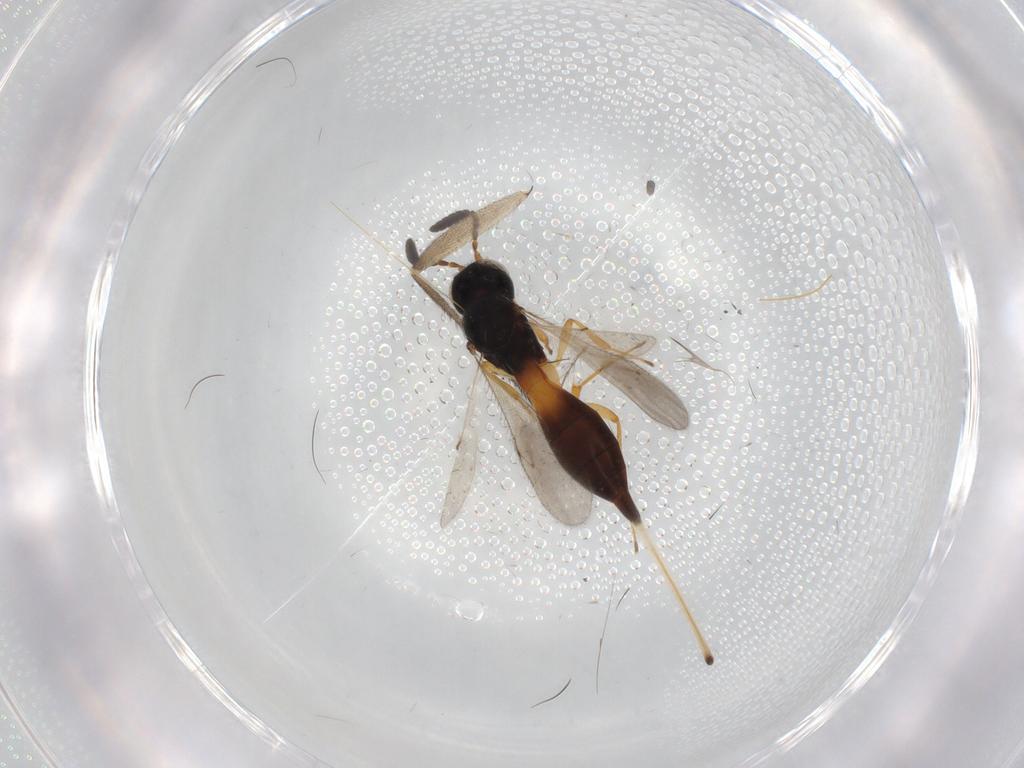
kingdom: Animalia
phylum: Arthropoda
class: Insecta
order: Hymenoptera
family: Scelionidae
